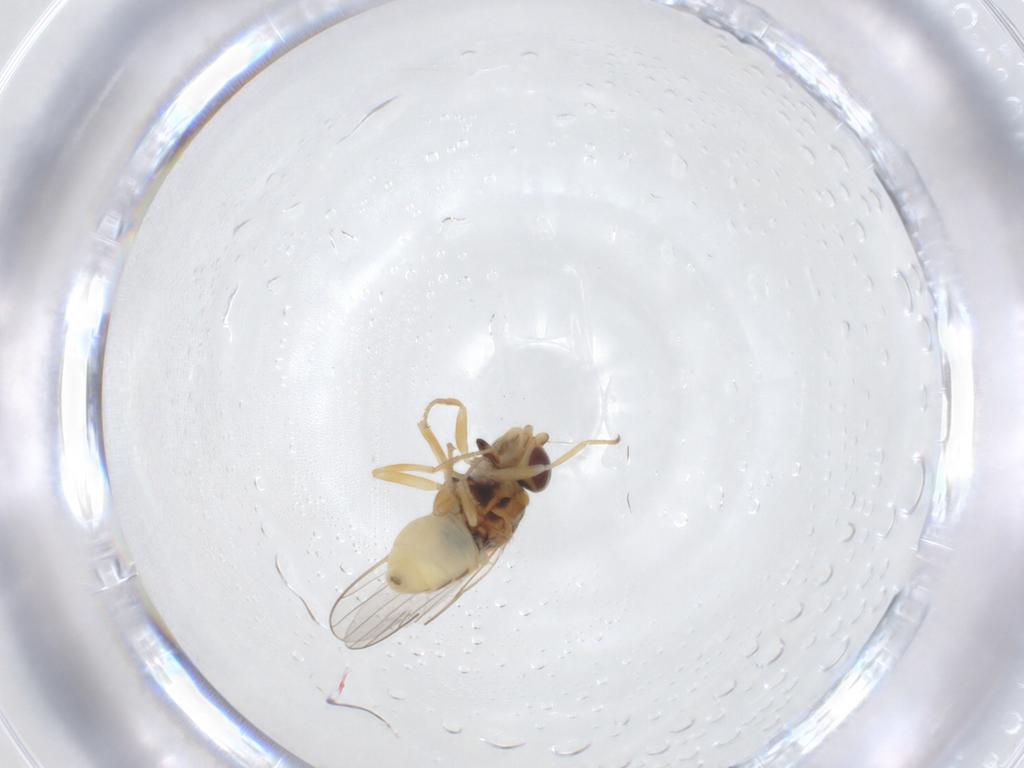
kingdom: Animalia
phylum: Arthropoda
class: Insecta
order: Diptera
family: Chloropidae
